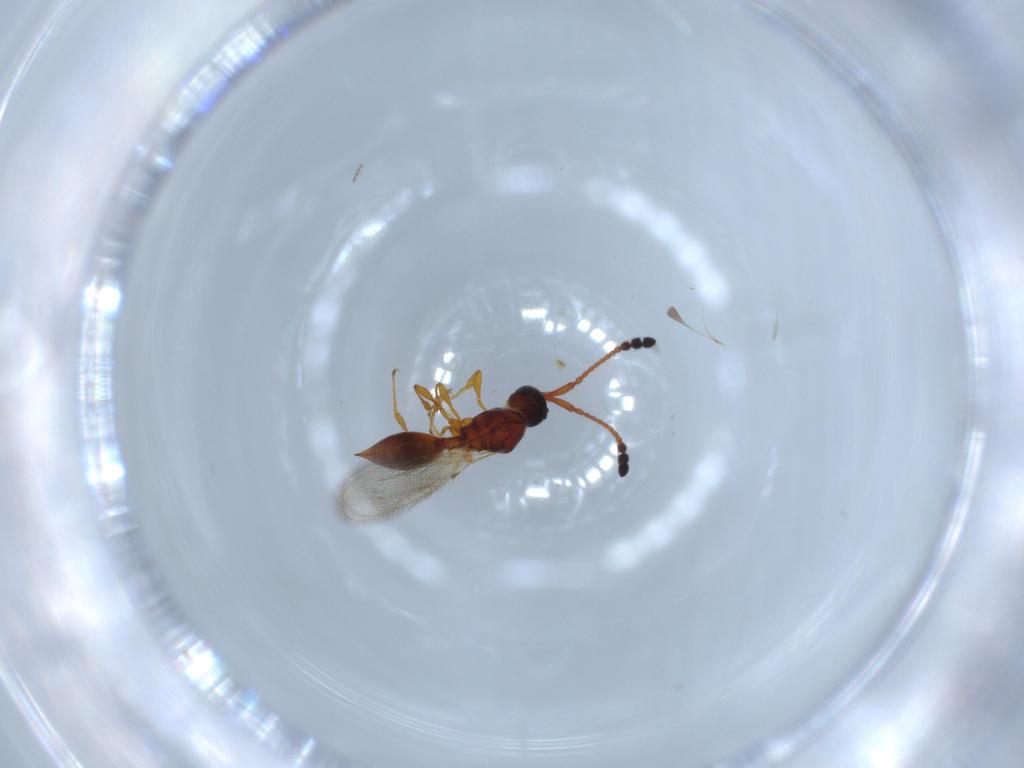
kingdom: Animalia
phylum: Arthropoda
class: Insecta
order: Hymenoptera
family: Diapriidae
